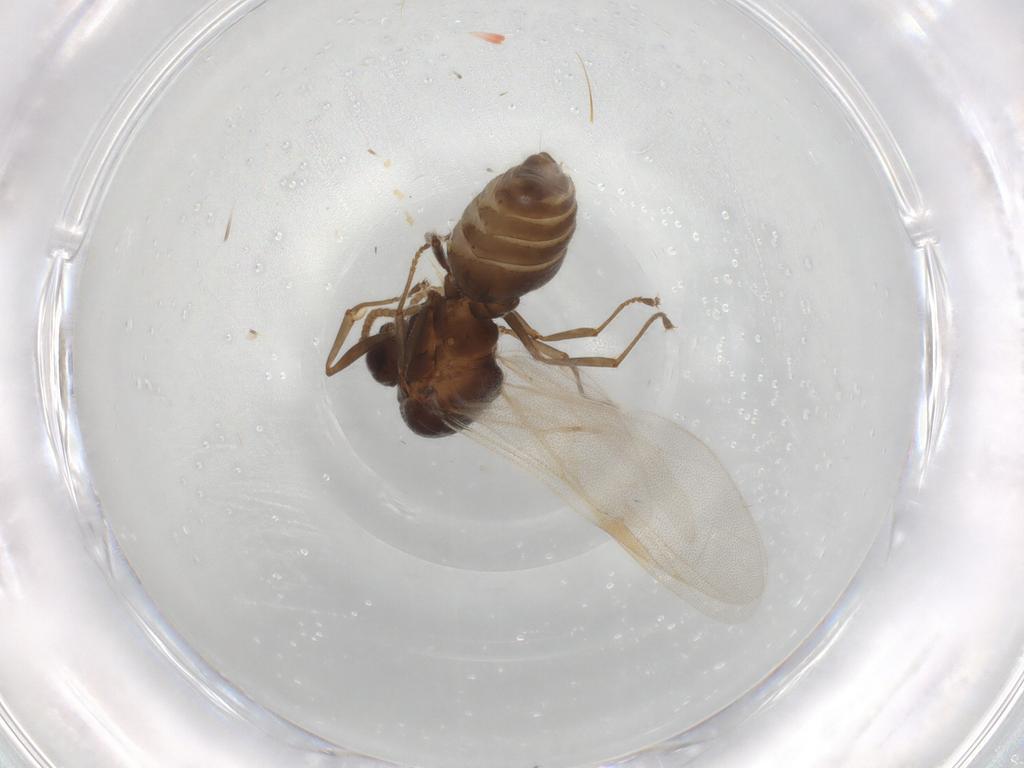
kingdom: Animalia
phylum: Arthropoda
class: Insecta
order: Hymenoptera
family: Formicidae
